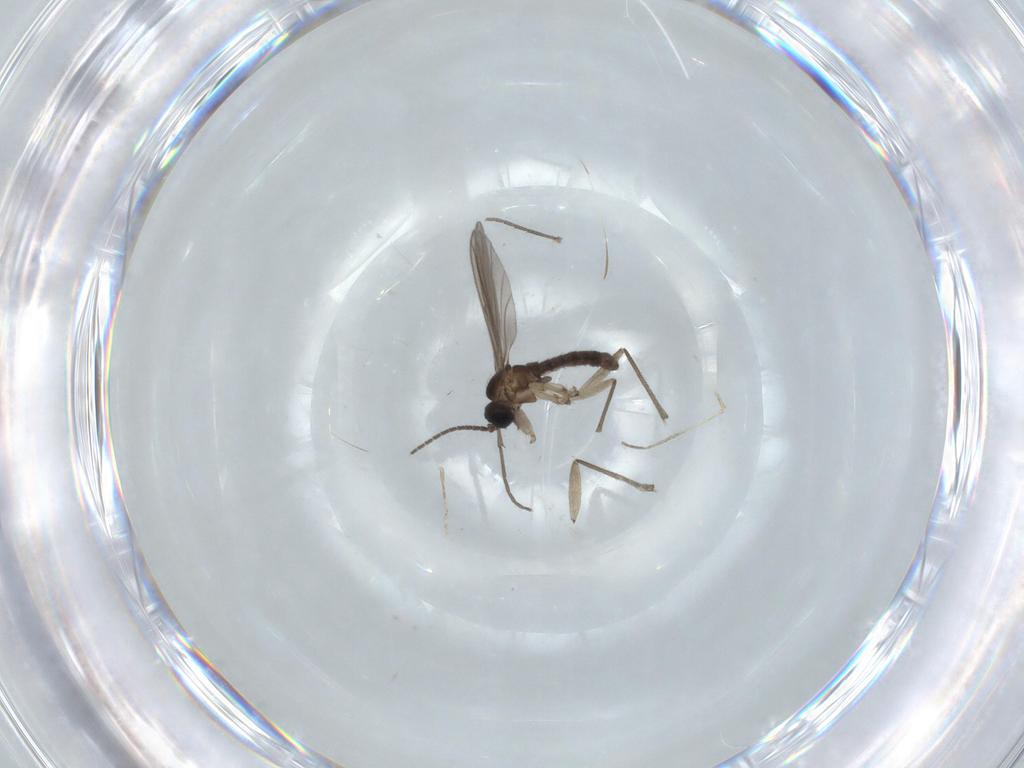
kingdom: Animalia
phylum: Arthropoda
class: Insecta
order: Diptera
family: Sciaridae
